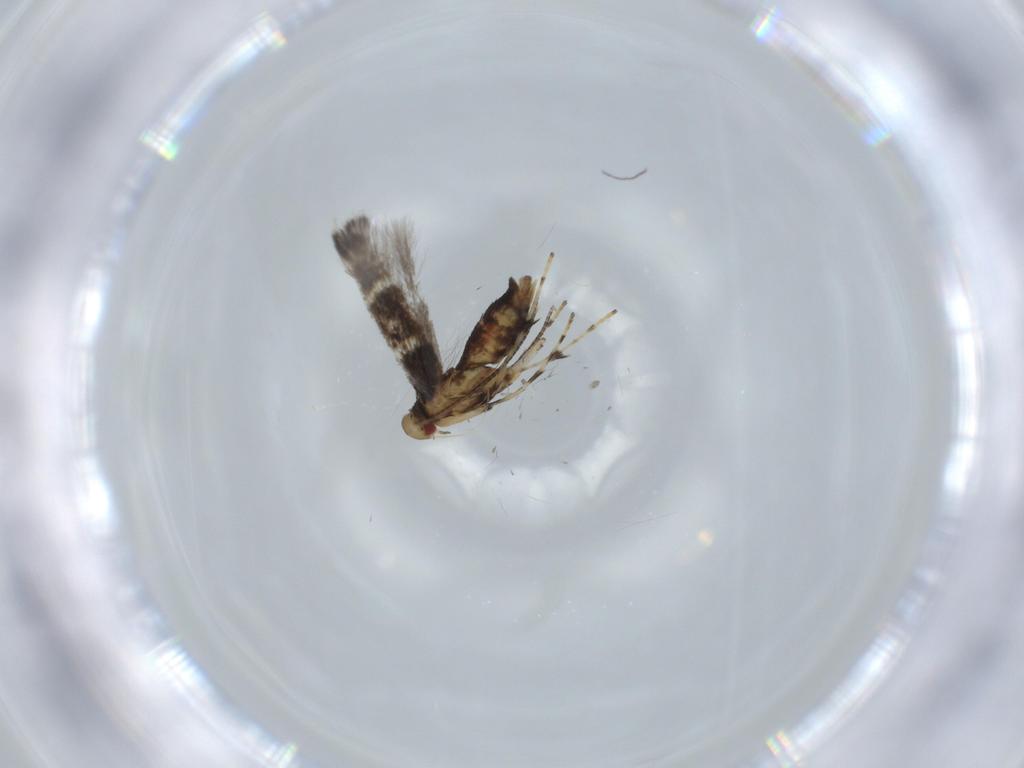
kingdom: Animalia
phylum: Arthropoda
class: Insecta
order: Lepidoptera
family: Gracillariidae
